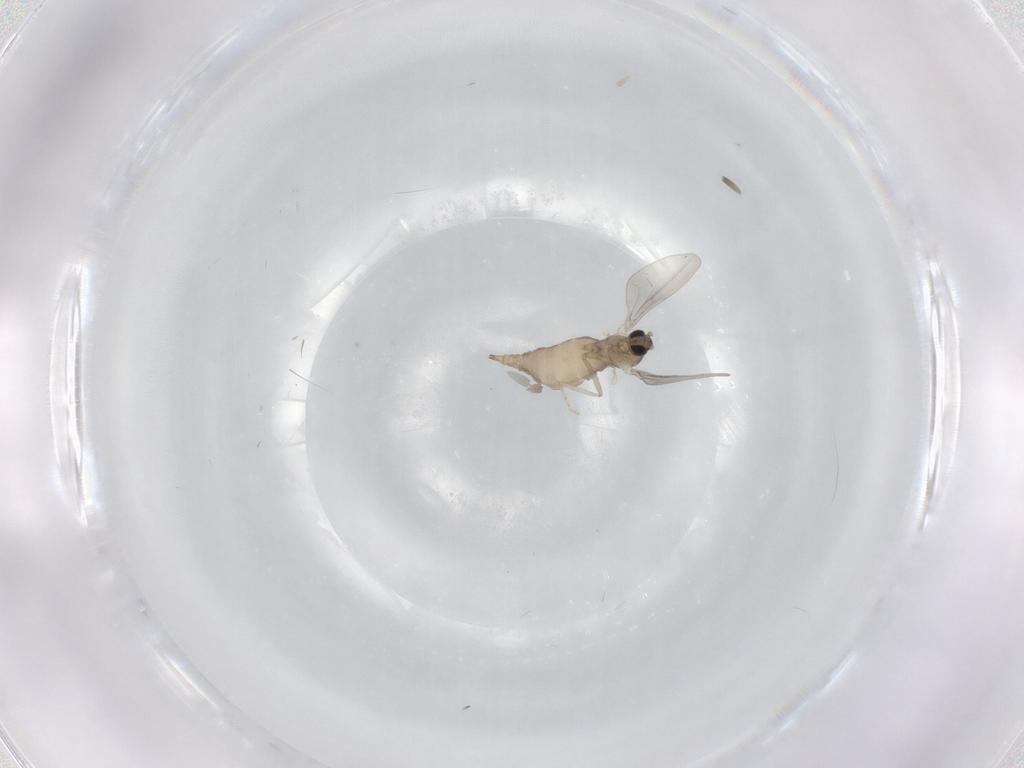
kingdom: Animalia
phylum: Arthropoda
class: Insecta
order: Diptera
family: Cecidomyiidae
